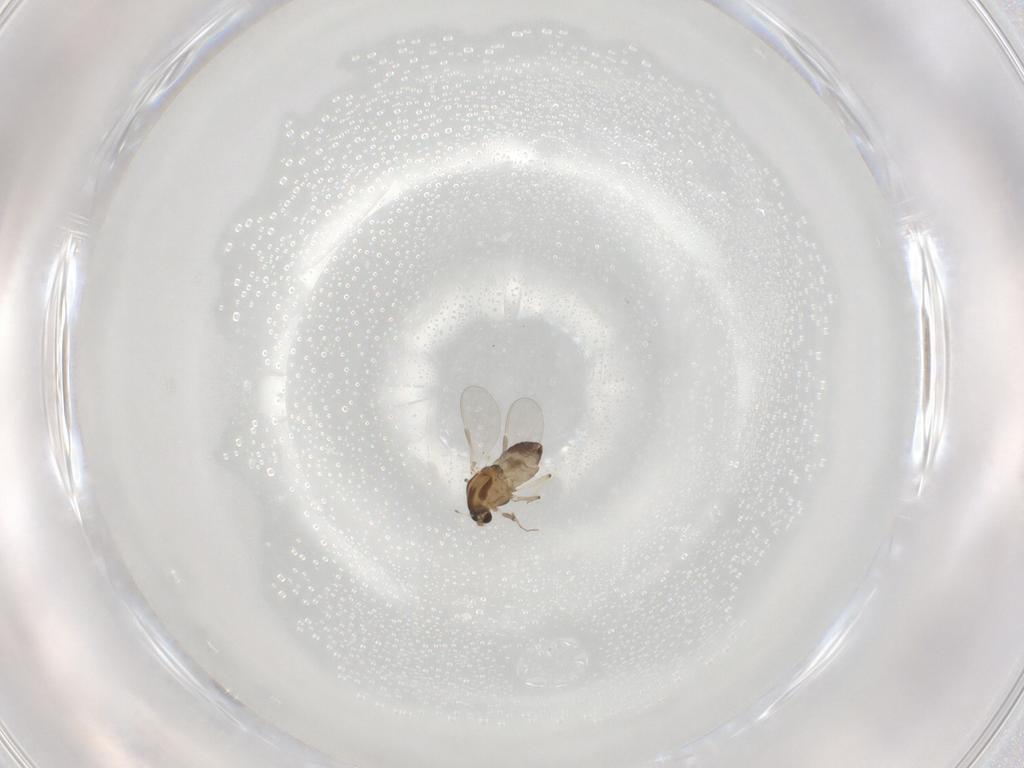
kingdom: Animalia
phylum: Arthropoda
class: Insecta
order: Diptera
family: Chironomidae
